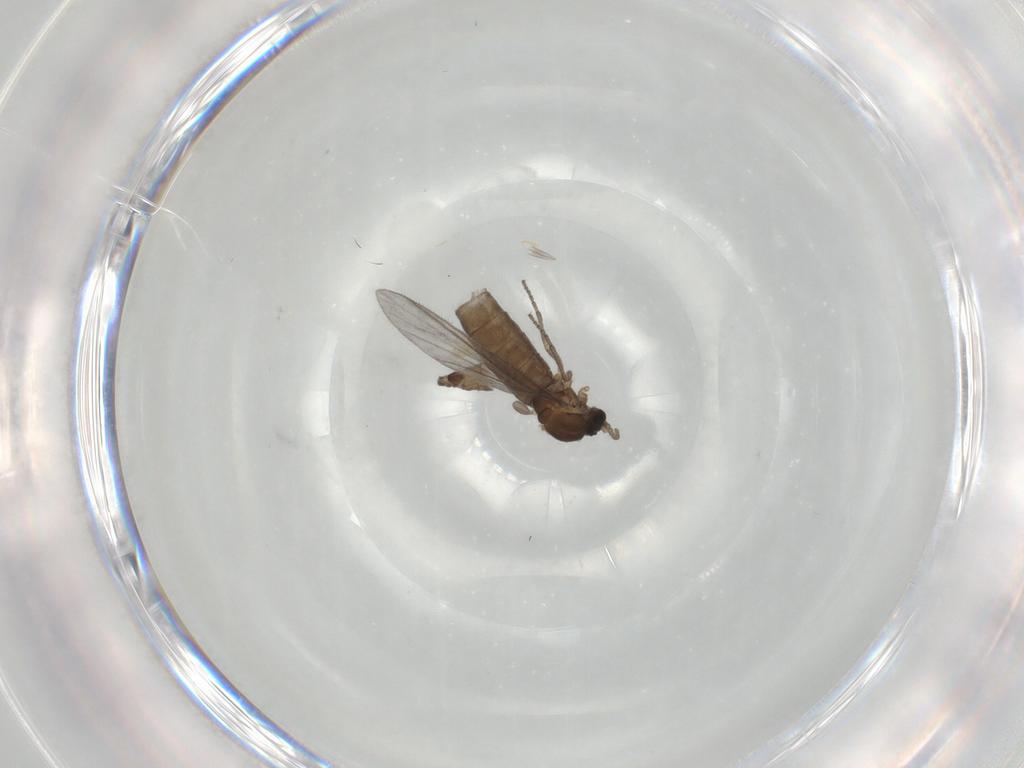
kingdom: Animalia
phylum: Arthropoda
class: Insecta
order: Diptera
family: Sciaridae
